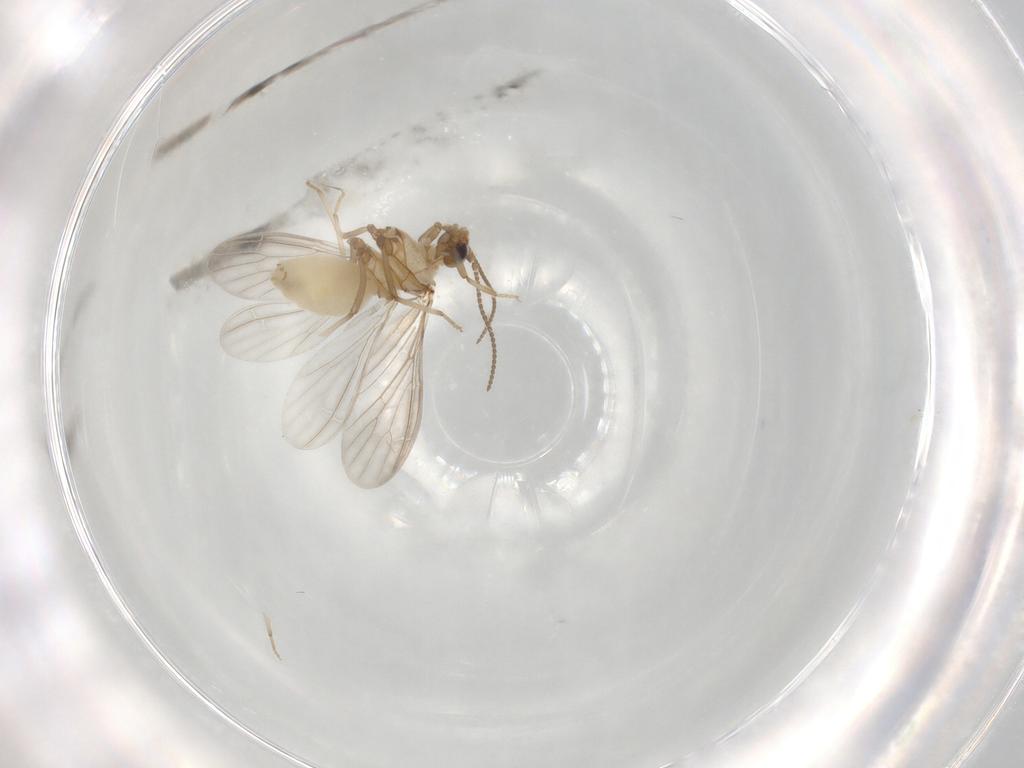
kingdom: Animalia
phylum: Arthropoda
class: Insecta
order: Neuroptera
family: Coniopterygidae
